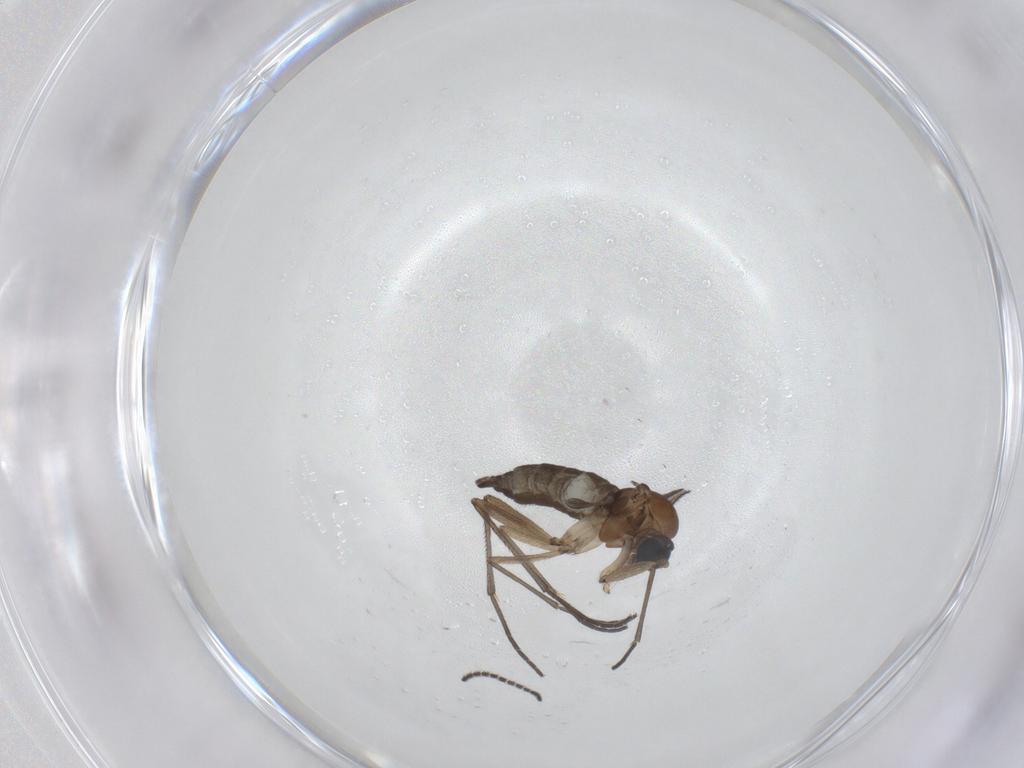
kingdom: Animalia
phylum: Arthropoda
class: Insecta
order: Diptera
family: Sciaridae
